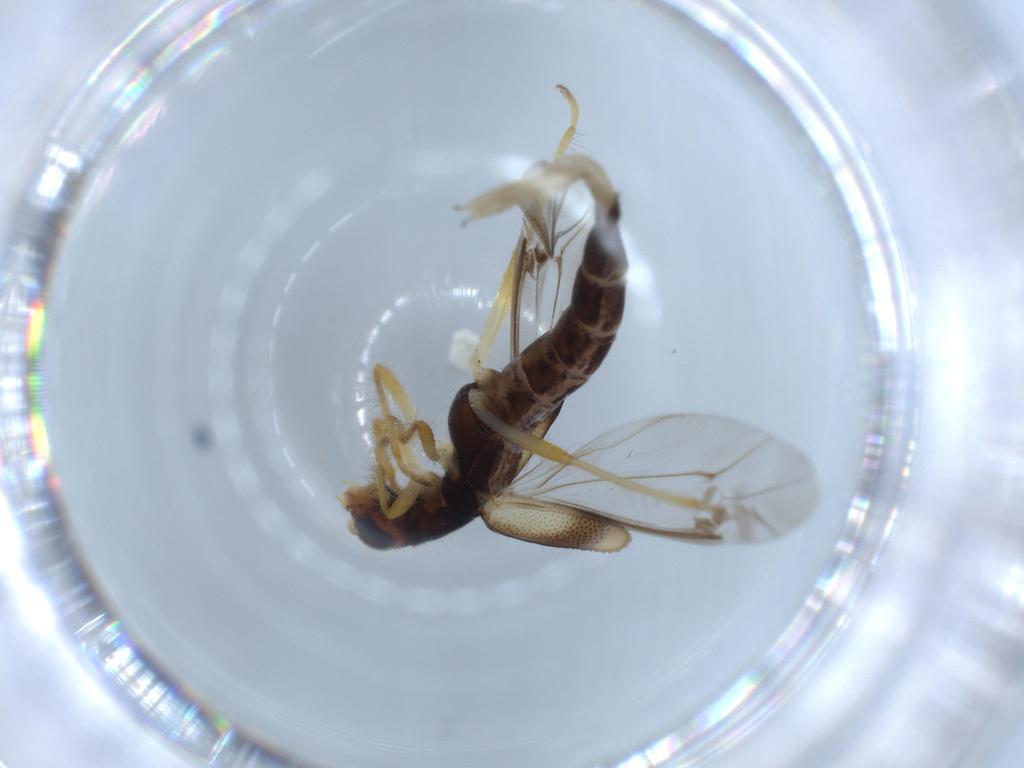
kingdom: Animalia
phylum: Arthropoda
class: Insecta
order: Coleoptera
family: Cleridae
